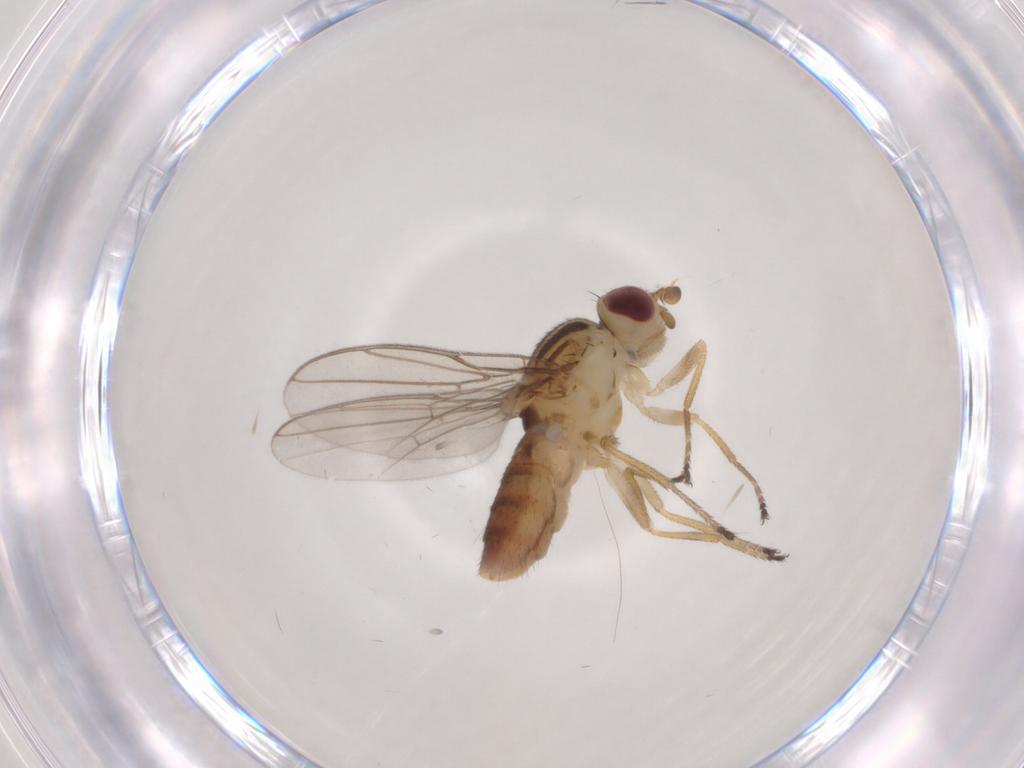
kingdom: Animalia
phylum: Arthropoda
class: Insecta
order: Diptera
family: Chloropidae
